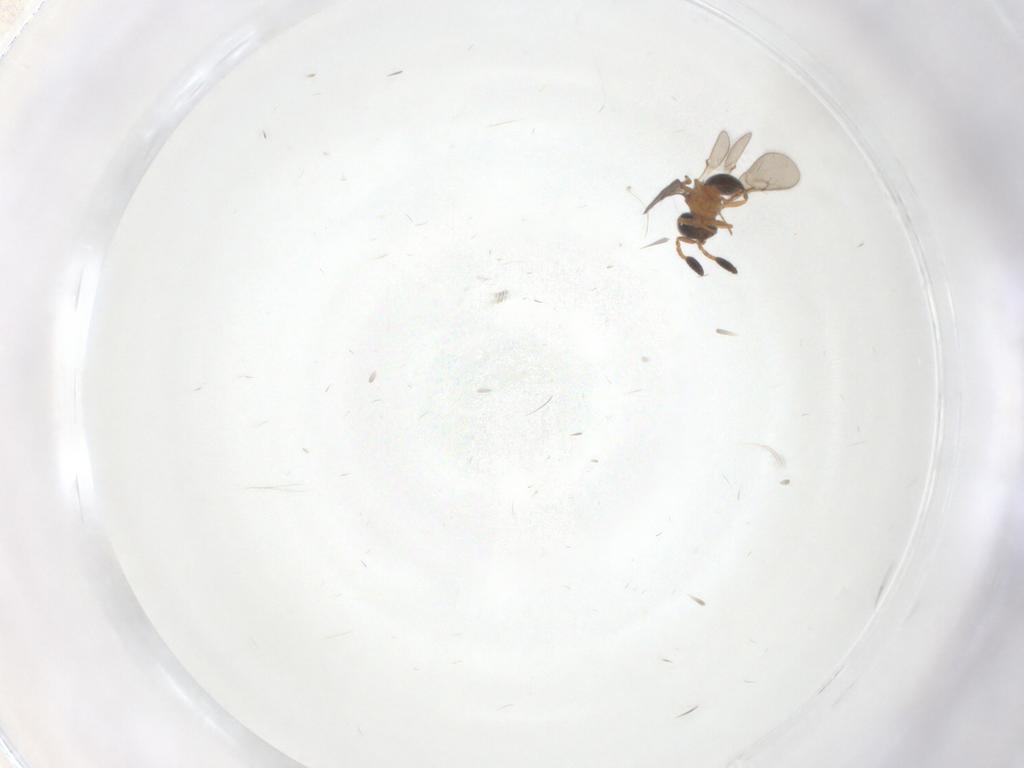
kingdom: Animalia
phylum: Arthropoda
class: Insecta
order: Hymenoptera
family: Scelionidae
